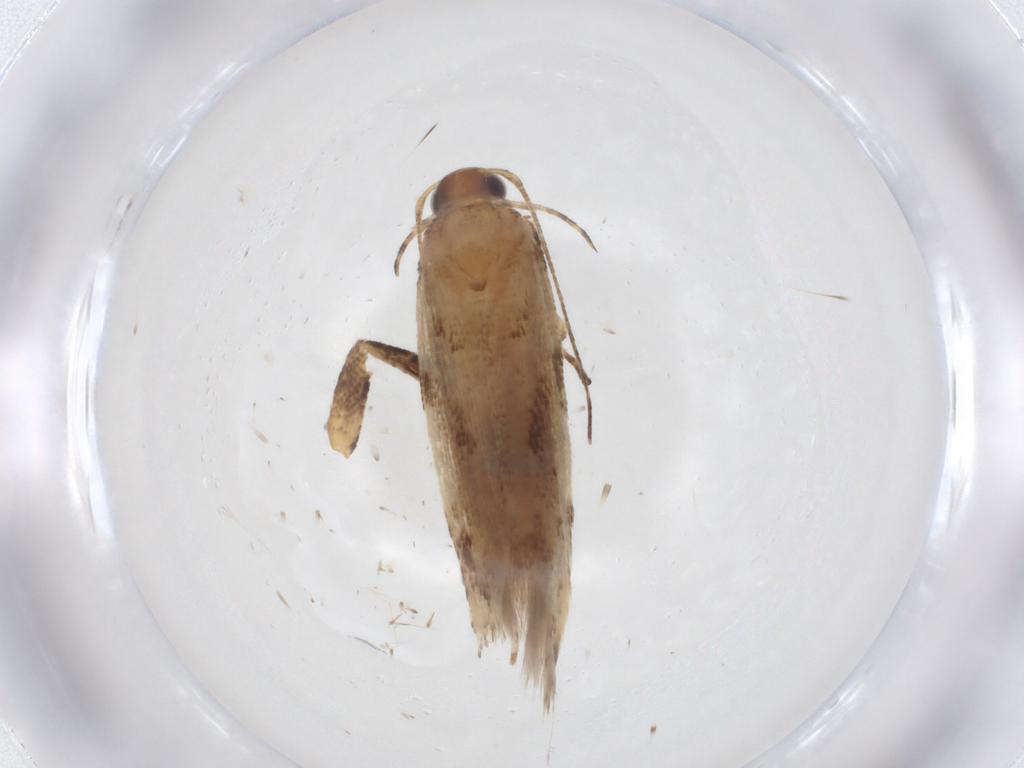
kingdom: Animalia
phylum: Arthropoda
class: Insecta
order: Lepidoptera
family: Gelechiidae
